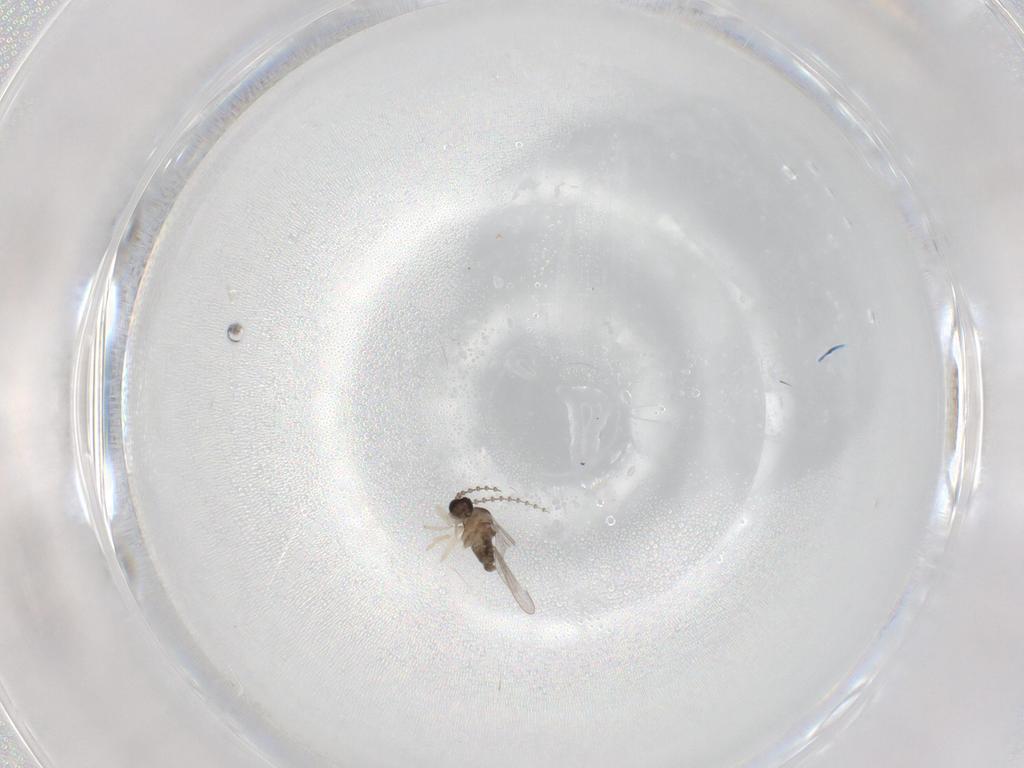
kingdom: Animalia
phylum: Arthropoda
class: Insecta
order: Diptera
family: Cecidomyiidae
